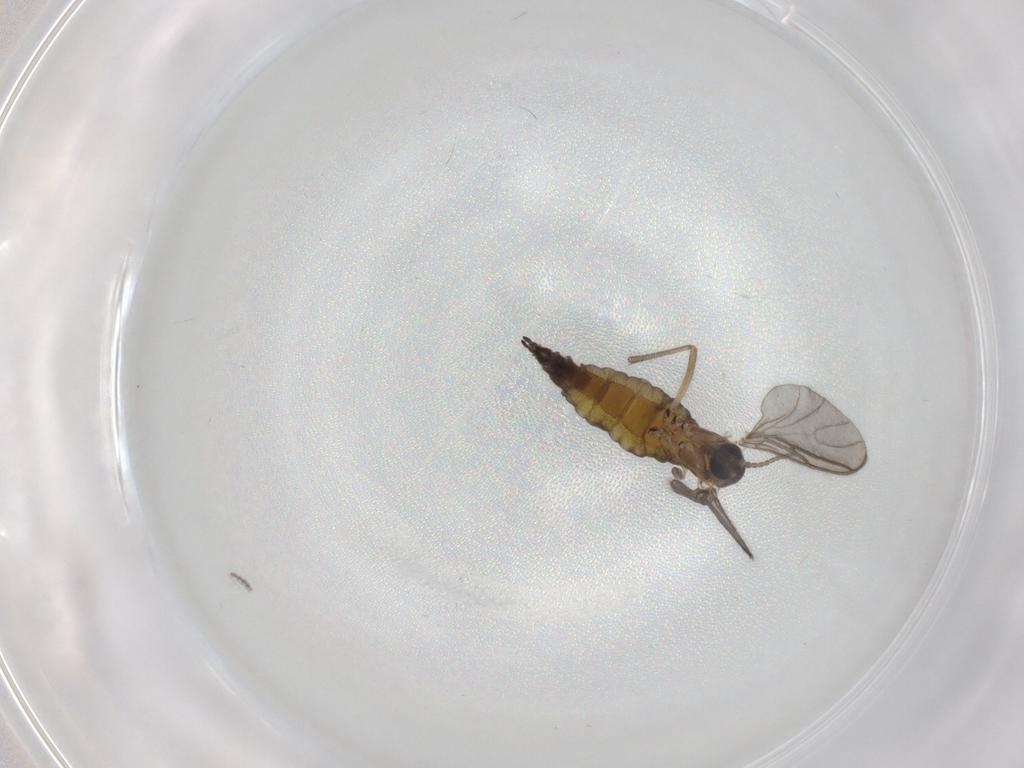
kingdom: Animalia
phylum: Arthropoda
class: Insecta
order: Diptera
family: Sciaridae
